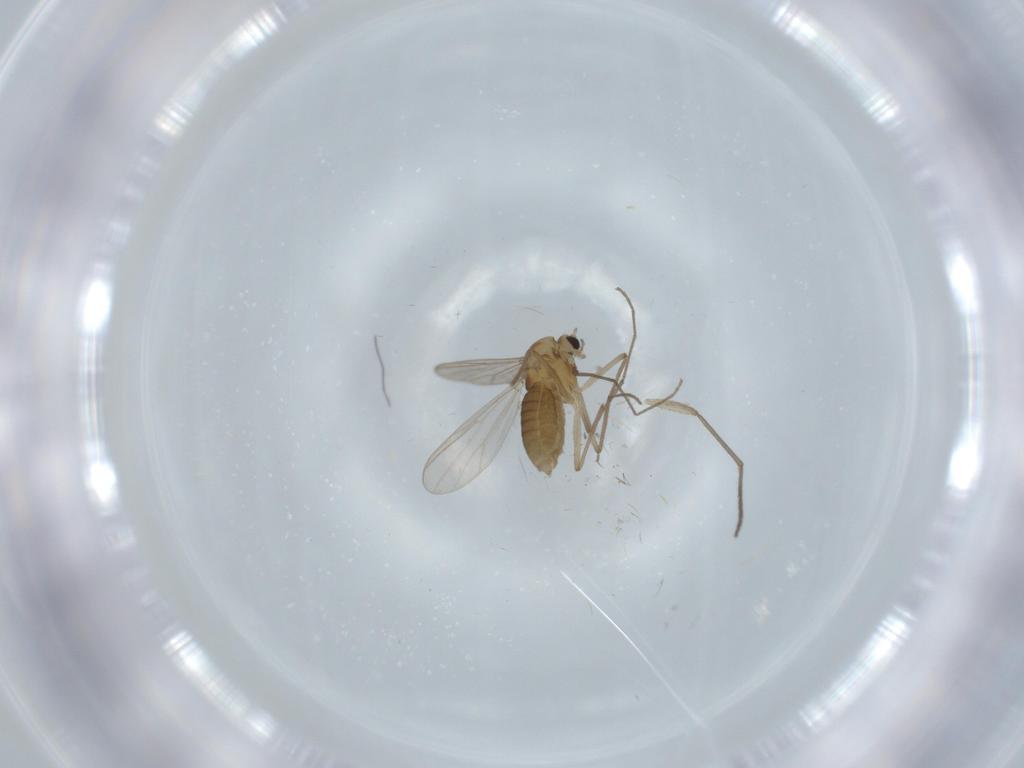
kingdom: Animalia
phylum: Arthropoda
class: Insecta
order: Diptera
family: Chironomidae
